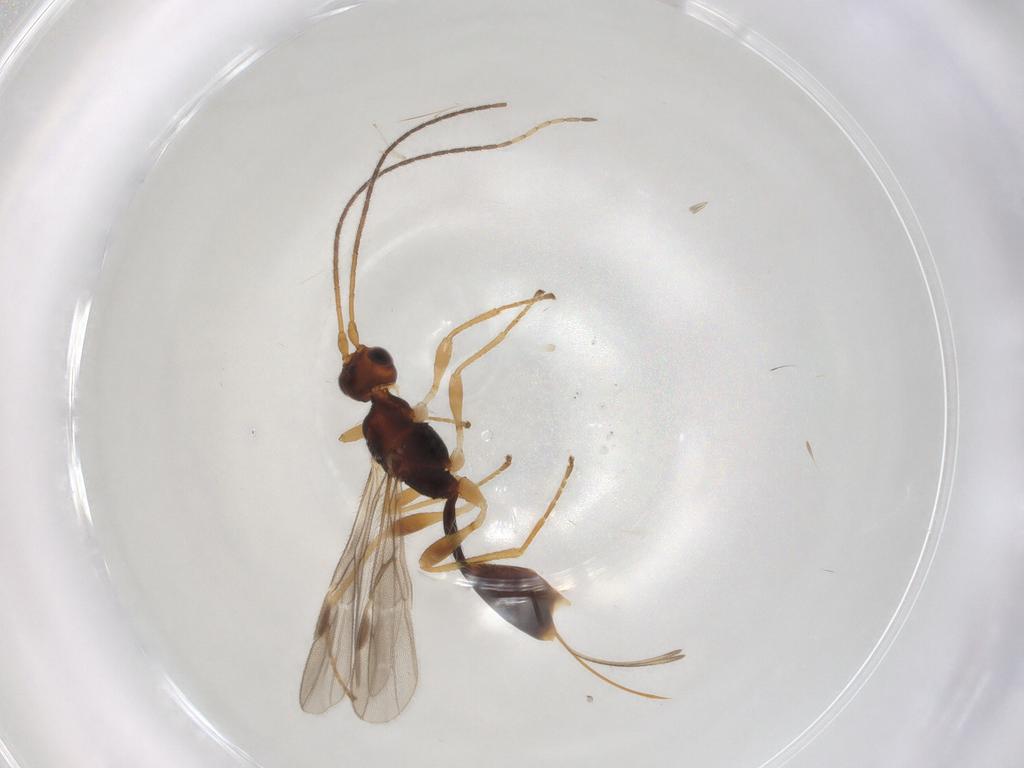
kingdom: Animalia
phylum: Arthropoda
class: Insecta
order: Hymenoptera
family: Braconidae
